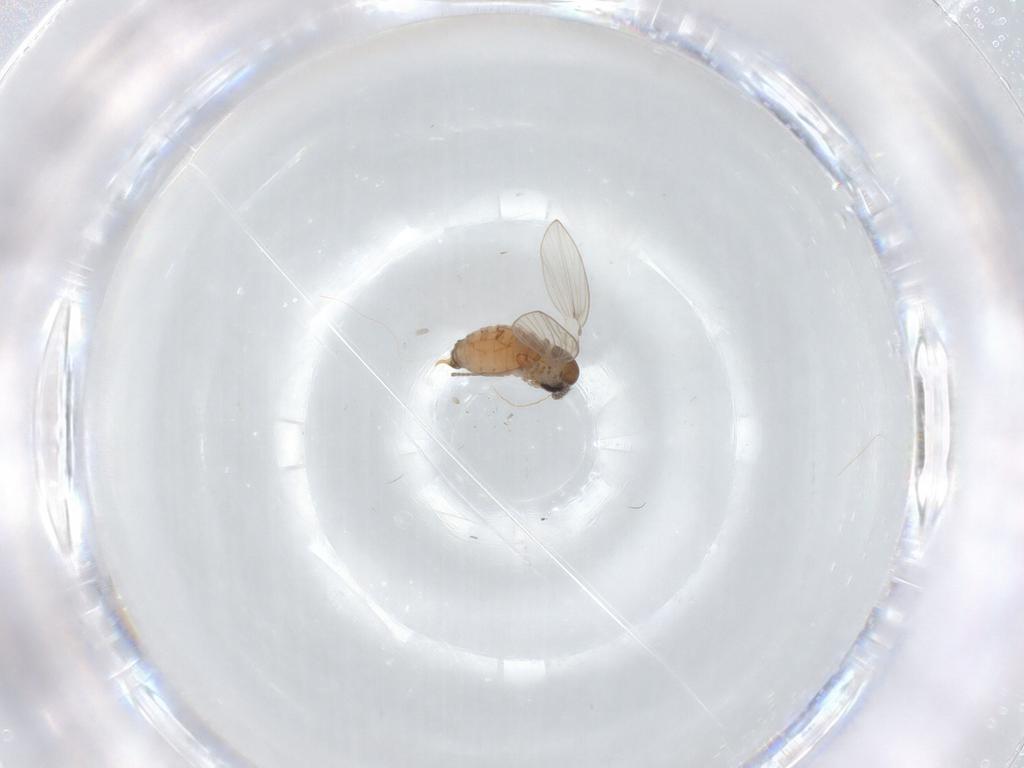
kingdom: Animalia
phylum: Arthropoda
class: Insecta
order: Diptera
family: Psychodidae
